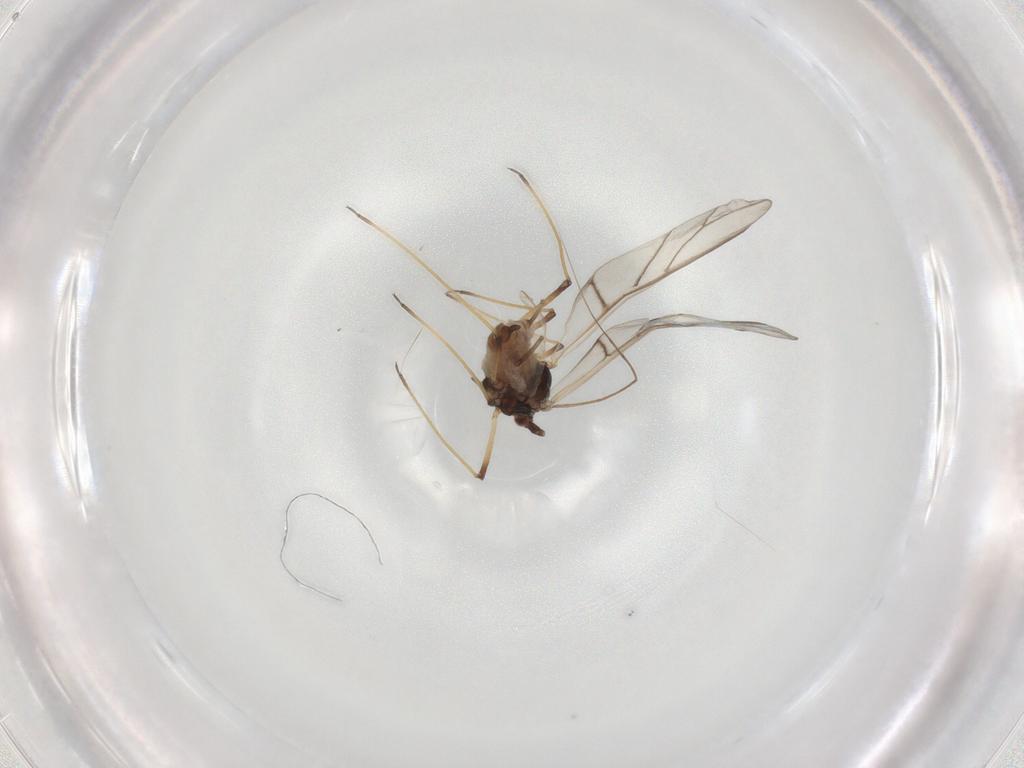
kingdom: Animalia
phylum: Arthropoda
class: Insecta
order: Hemiptera
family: Aphididae
